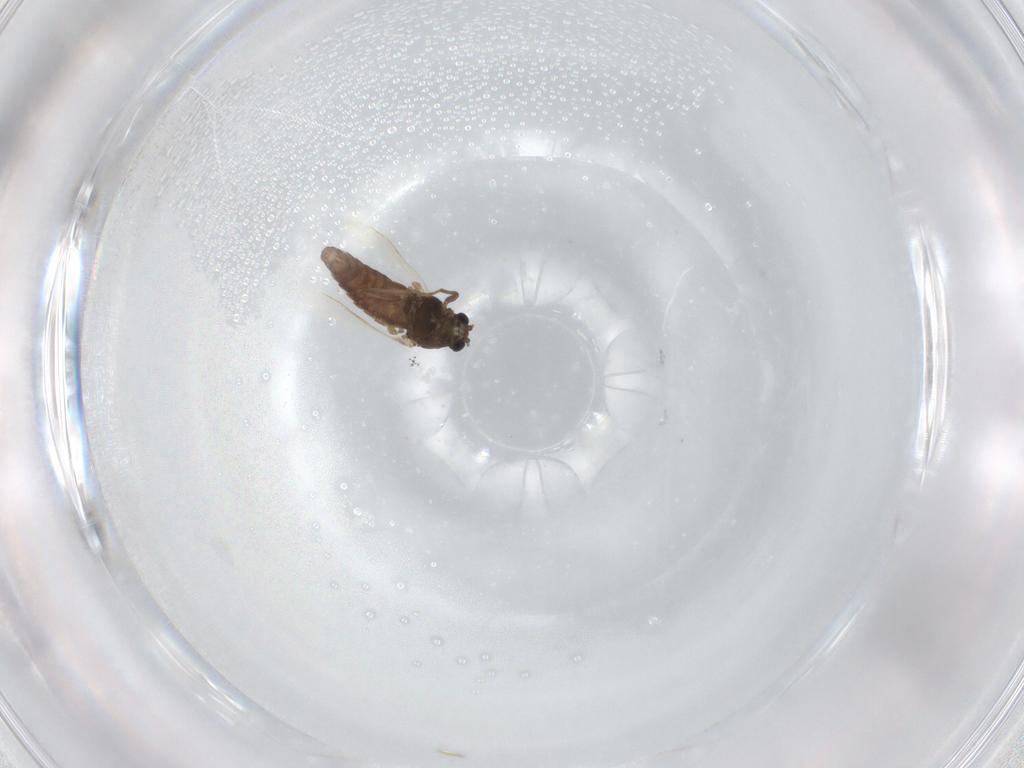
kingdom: Animalia
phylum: Arthropoda
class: Insecta
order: Diptera
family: Chironomidae
